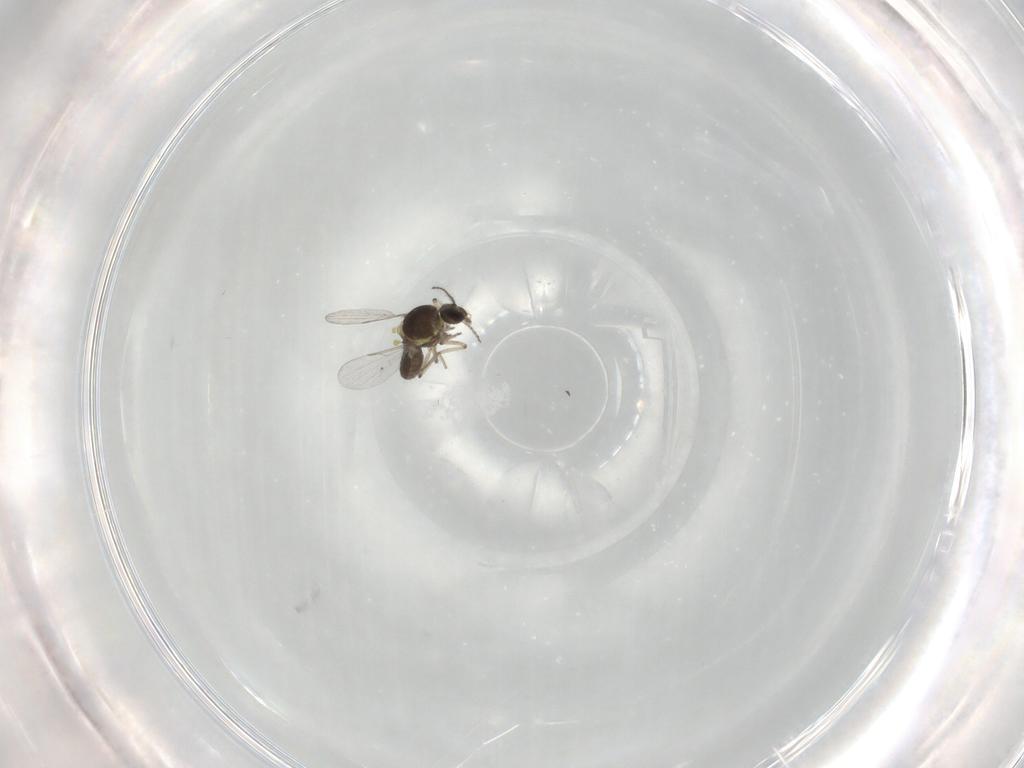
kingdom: Animalia
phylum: Arthropoda
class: Insecta
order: Diptera
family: Ceratopogonidae
